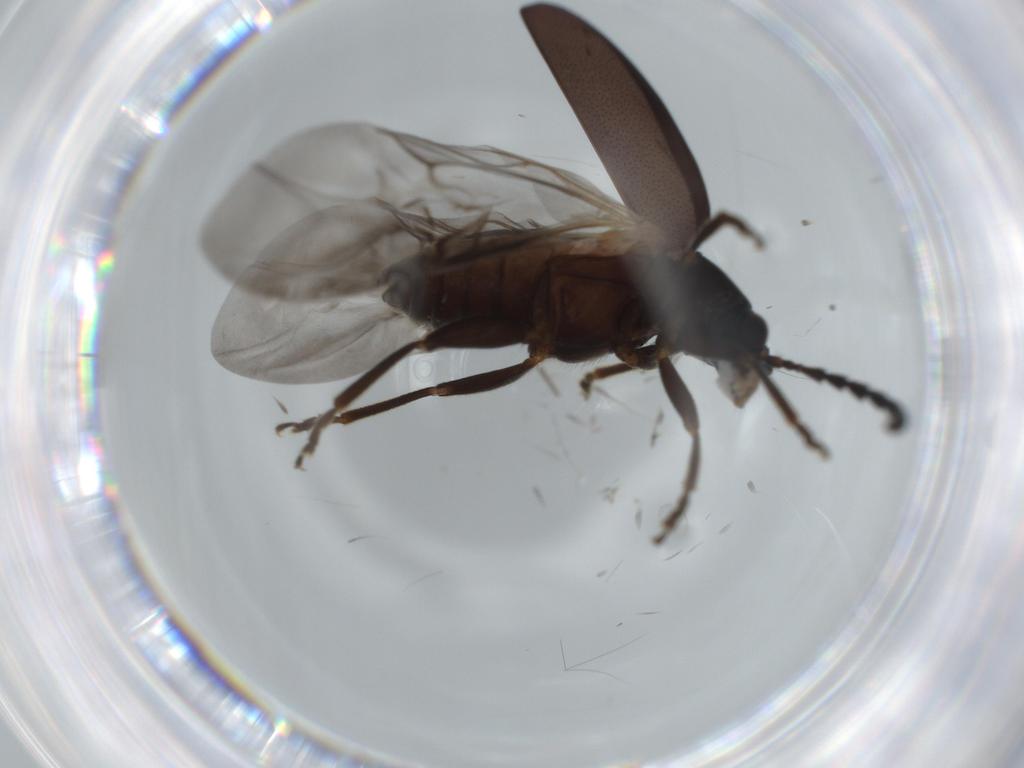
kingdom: Animalia
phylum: Arthropoda
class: Insecta
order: Coleoptera
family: Chrysomelidae
